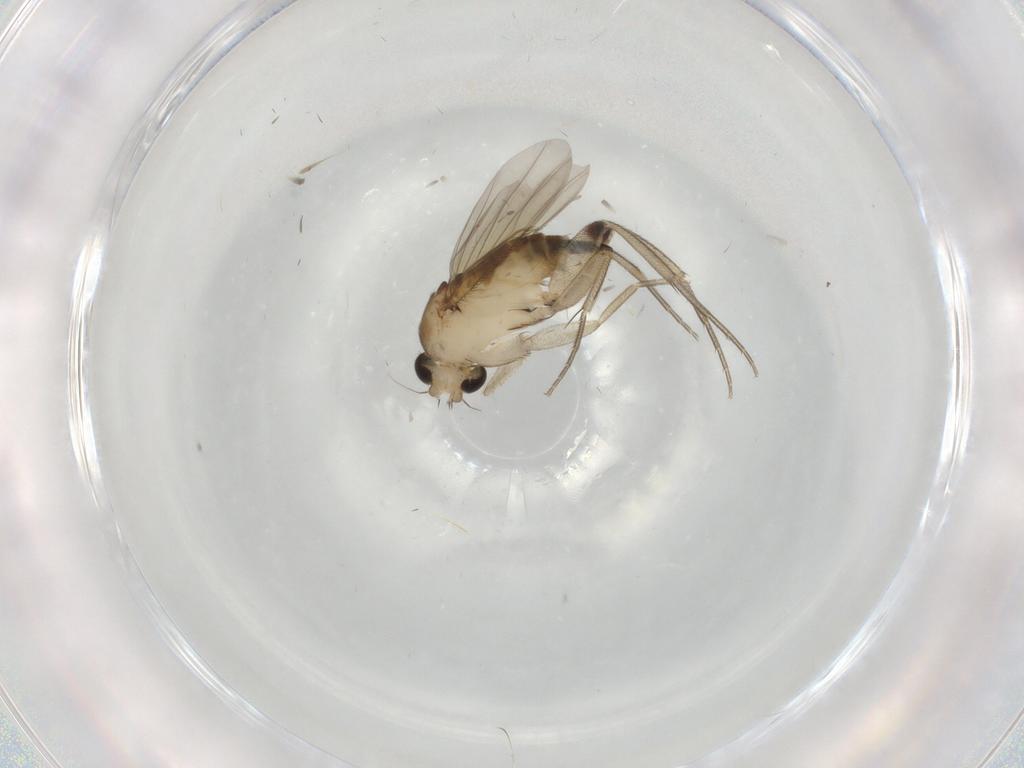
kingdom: Animalia
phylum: Arthropoda
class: Insecta
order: Diptera
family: Phoridae
